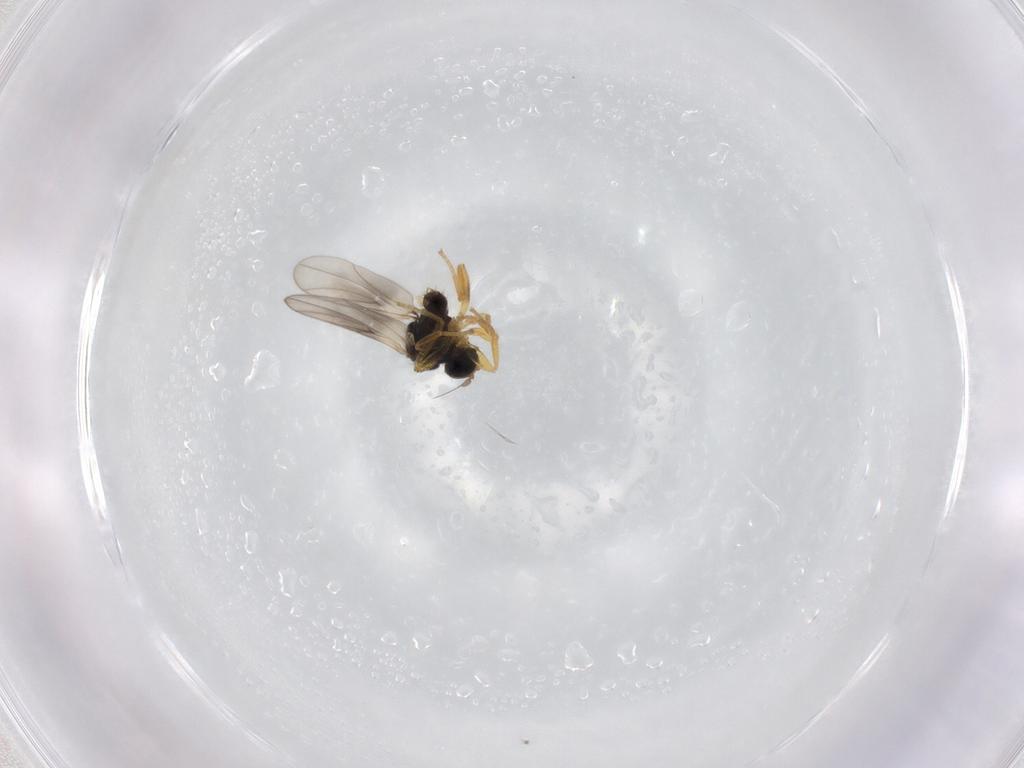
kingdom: Animalia
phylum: Arthropoda
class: Insecta
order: Diptera
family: Hybotidae
